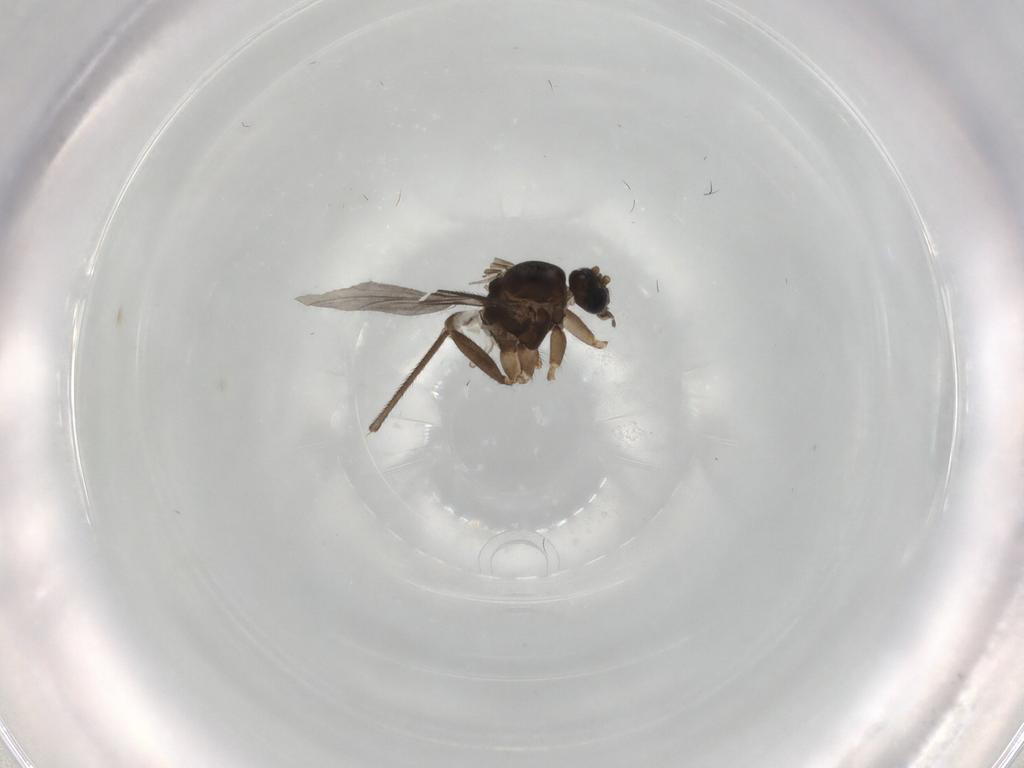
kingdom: Animalia
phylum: Arthropoda
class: Insecta
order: Diptera
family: Sciaridae
